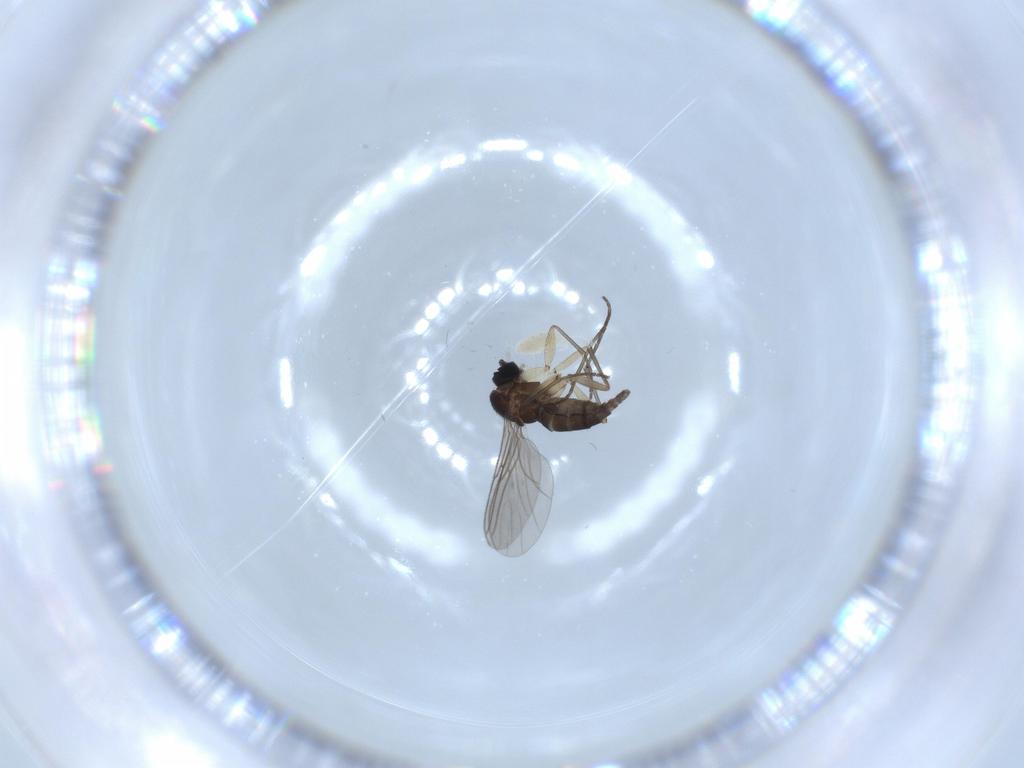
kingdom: Animalia
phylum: Arthropoda
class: Insecta
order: Diptera
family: Sciaridae
